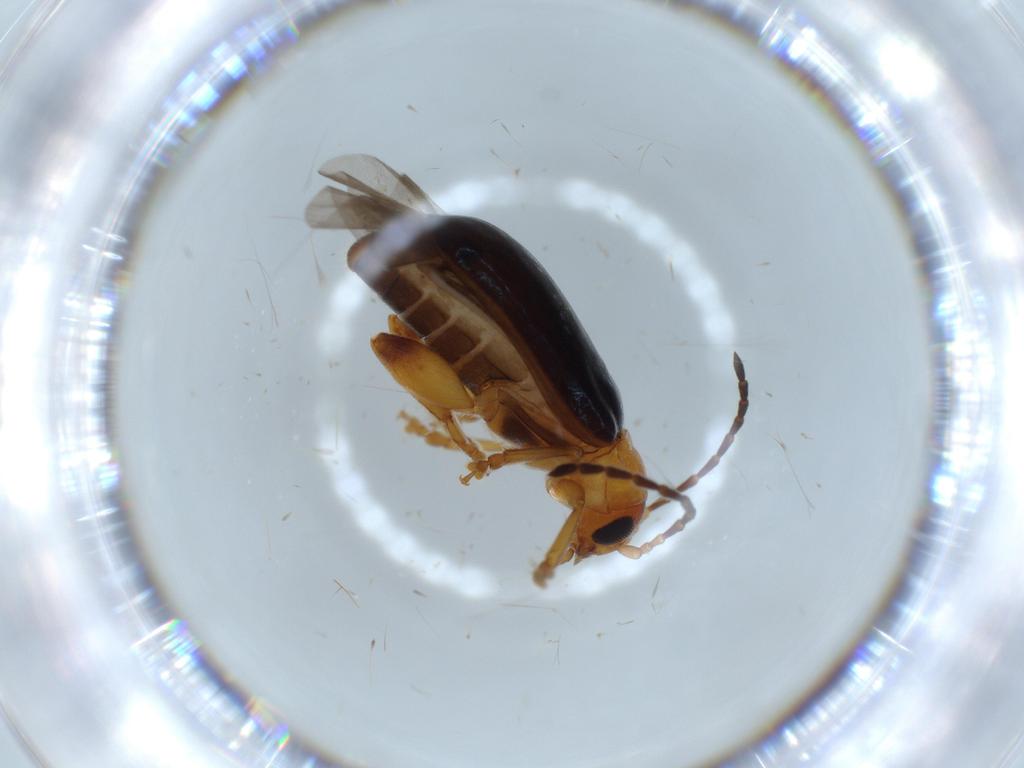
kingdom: Animalia
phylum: Arthropoda
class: Insecta
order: Coleoptera
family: Chrysomelidae
